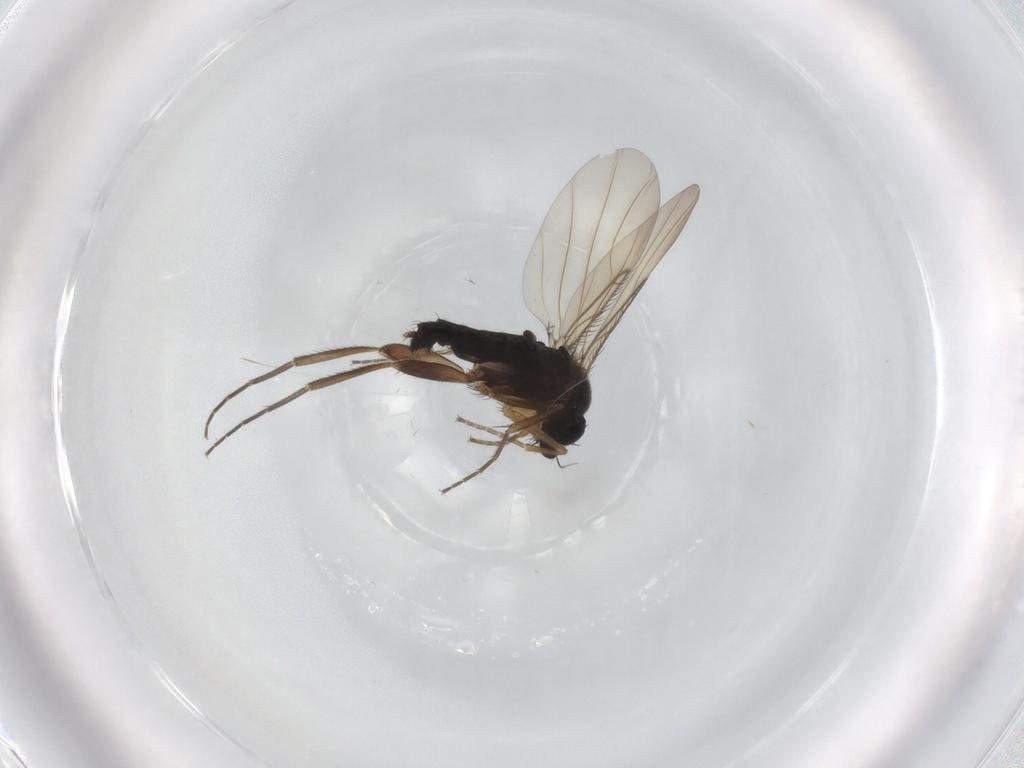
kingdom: Animalia
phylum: Arthropoda
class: Insecta
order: Diptera
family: Phoridae
